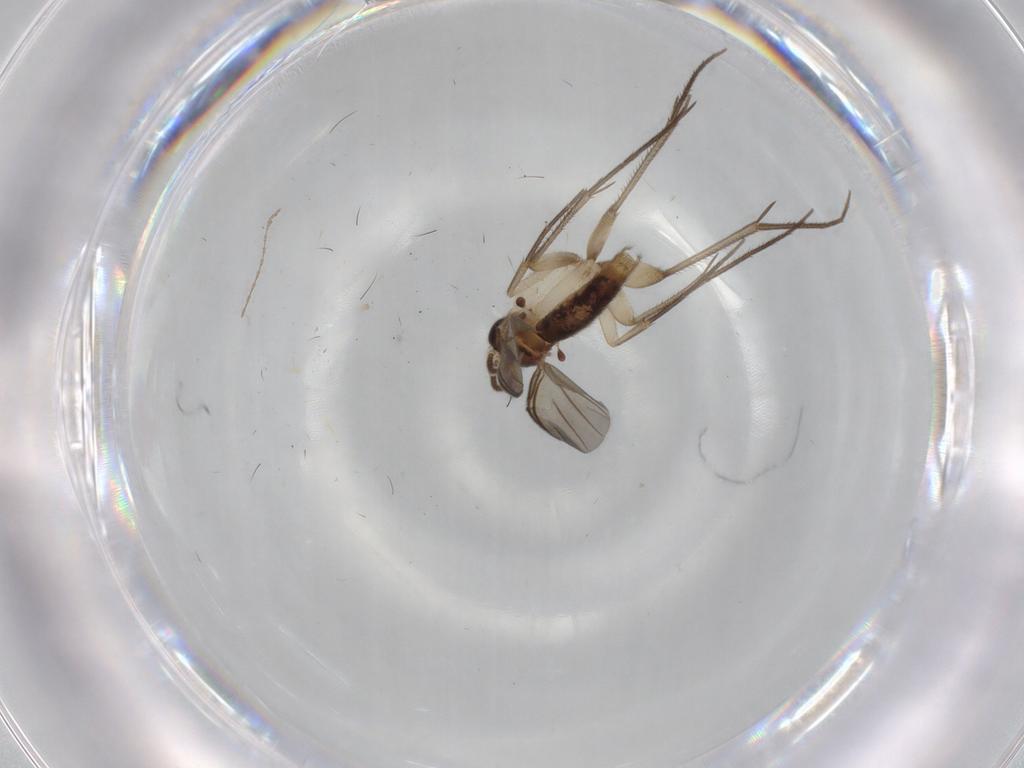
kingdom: Animalia
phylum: Arthropoda
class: Insecta
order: Diptera
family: Mycetophilidae
